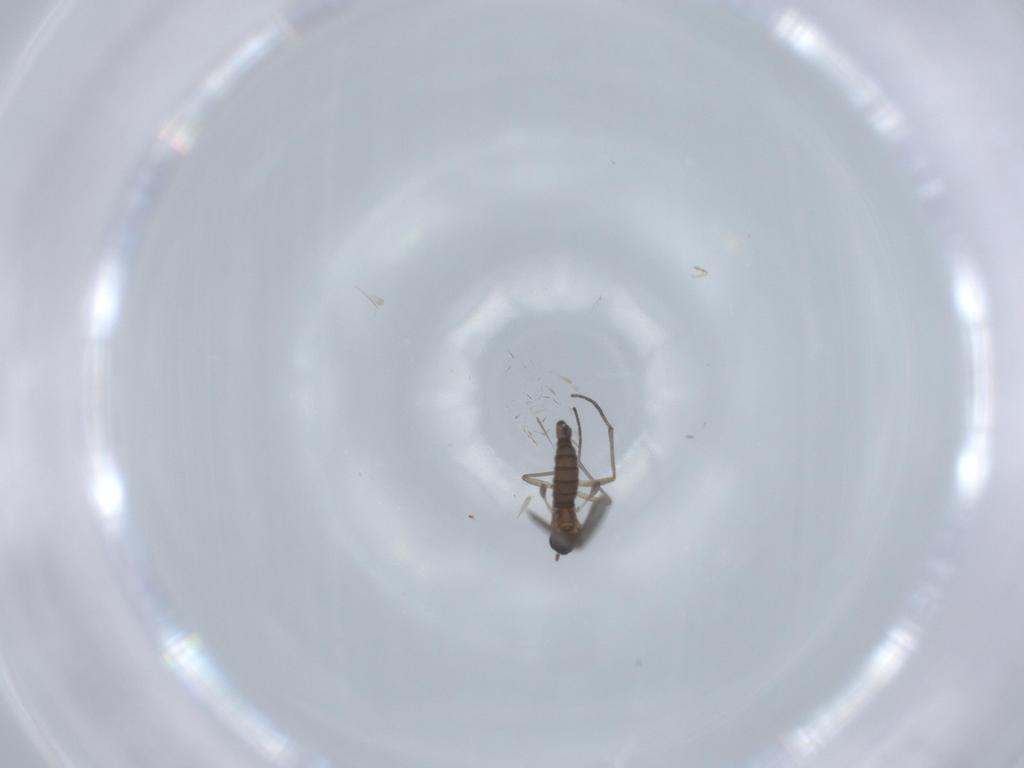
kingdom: Animalia
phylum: Arthropoda
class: Insecta
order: Diptera
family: Sciaridae
